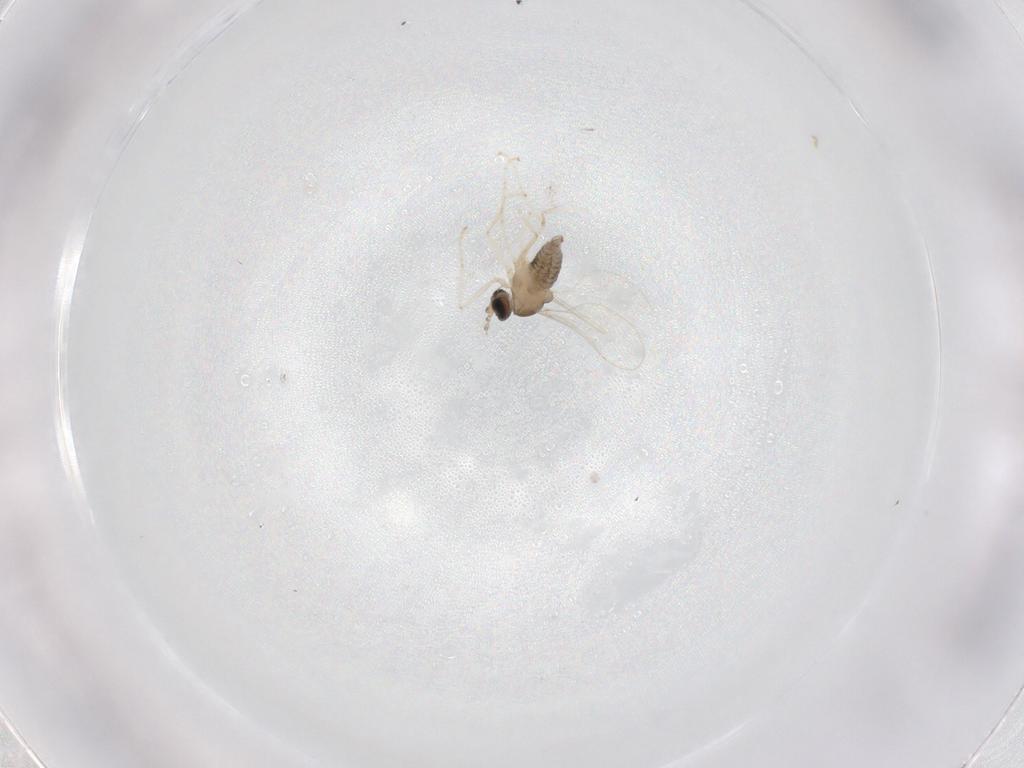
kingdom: Animalia
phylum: Arthropoda
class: Insecta
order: Diptera
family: Cecidomyiidae
